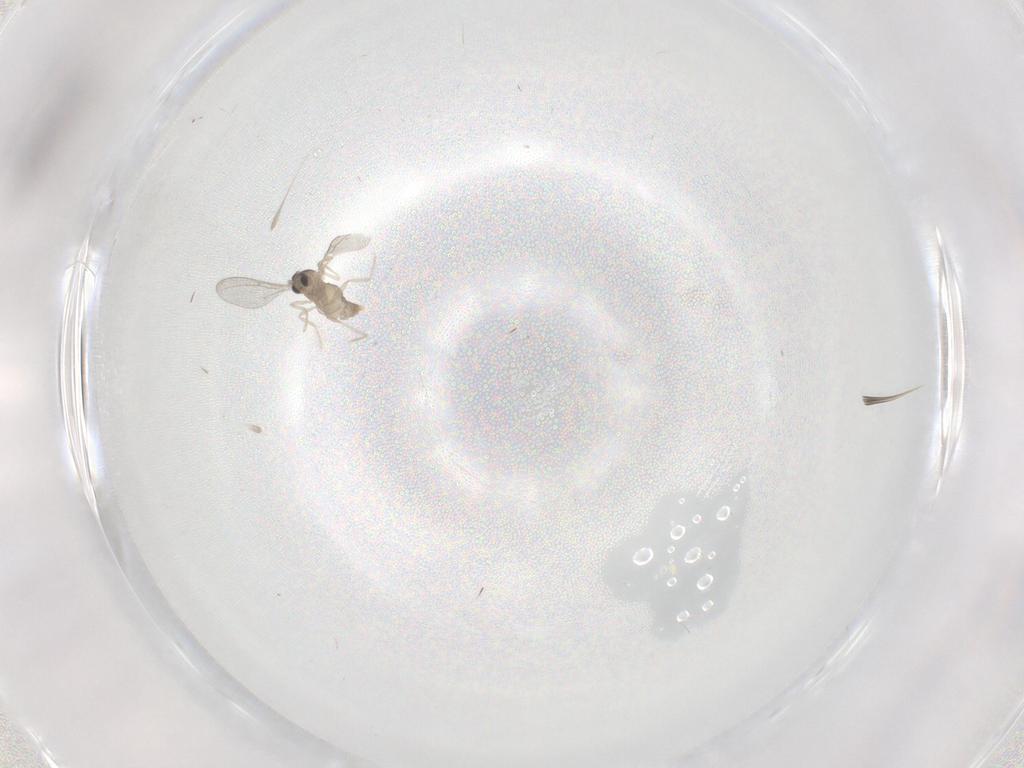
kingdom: Animalia
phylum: Arthropoda
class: Insecta
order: Diptera
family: Cecidomyiidae
